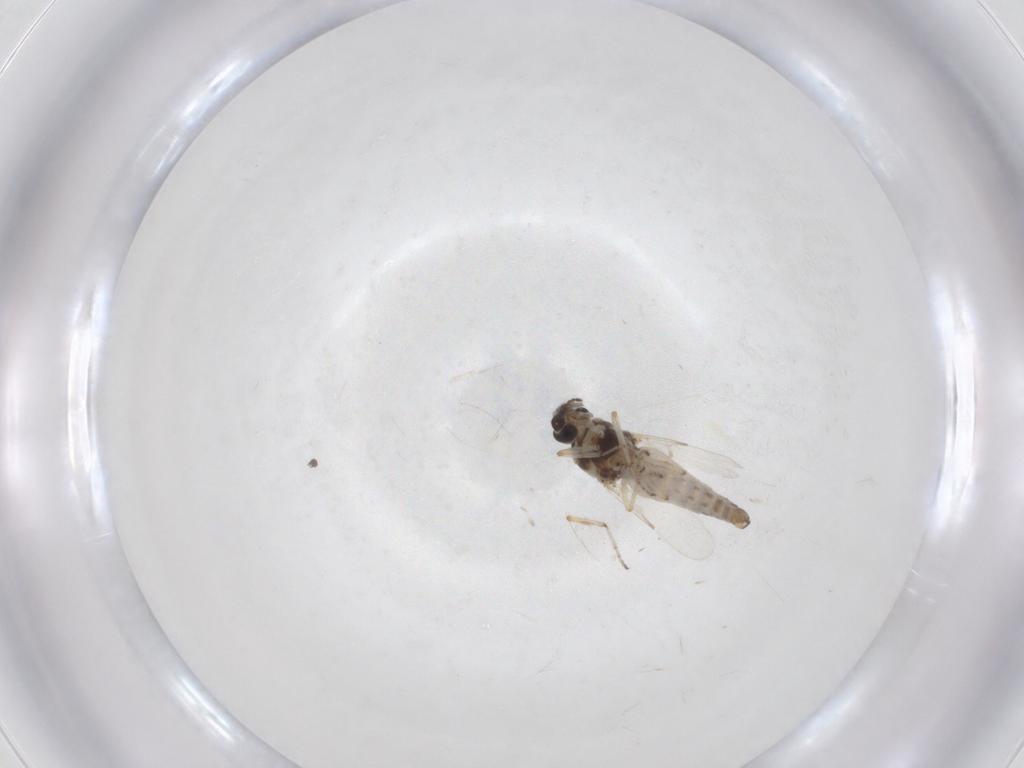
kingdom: Animalia
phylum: Arthropoda
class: Insecta
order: Diptera
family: Ceratopogonidae
